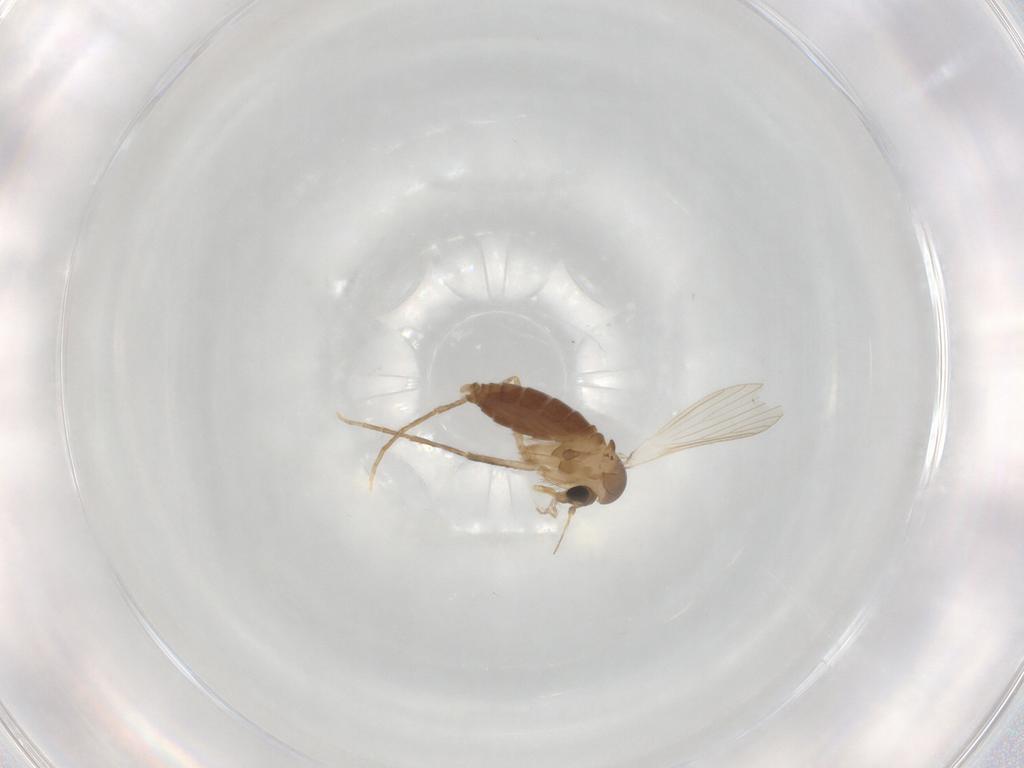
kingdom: Animalia
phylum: Arthropoda
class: Insecta
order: Diptera
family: Psychodidae
